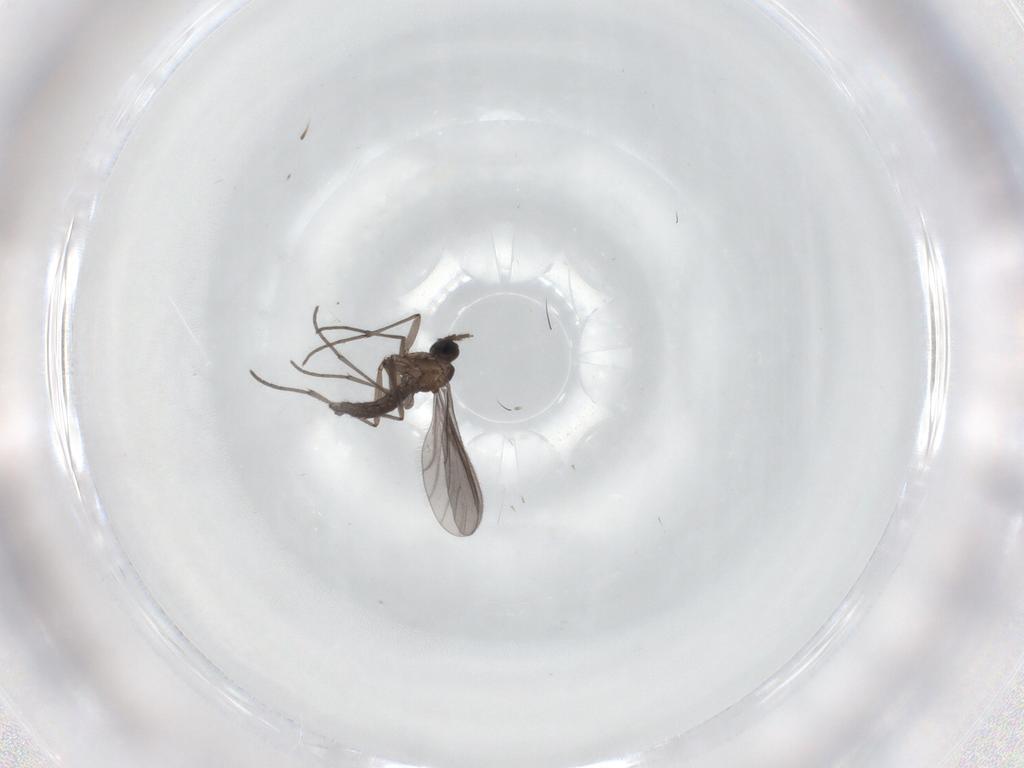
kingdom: Animalia
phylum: Arthropoda
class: Insecta
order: Diptera
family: Sciaridae
